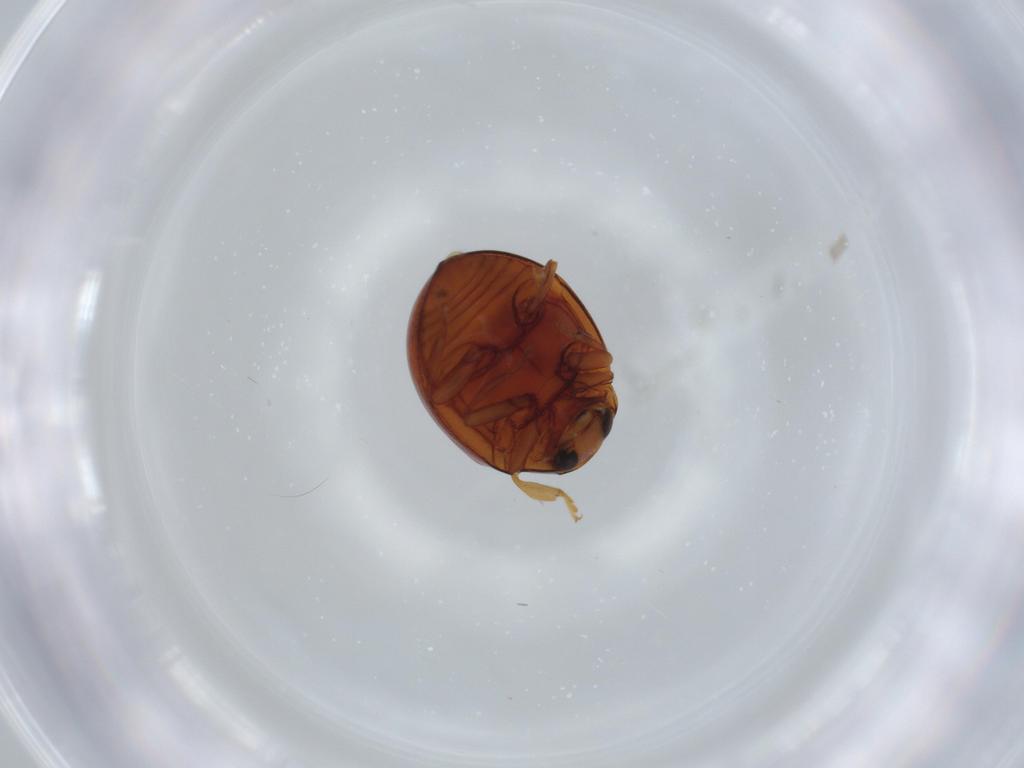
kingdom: Animalia
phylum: Arthropoda
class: Insecta
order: Coleoptera
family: Coccinellidae
